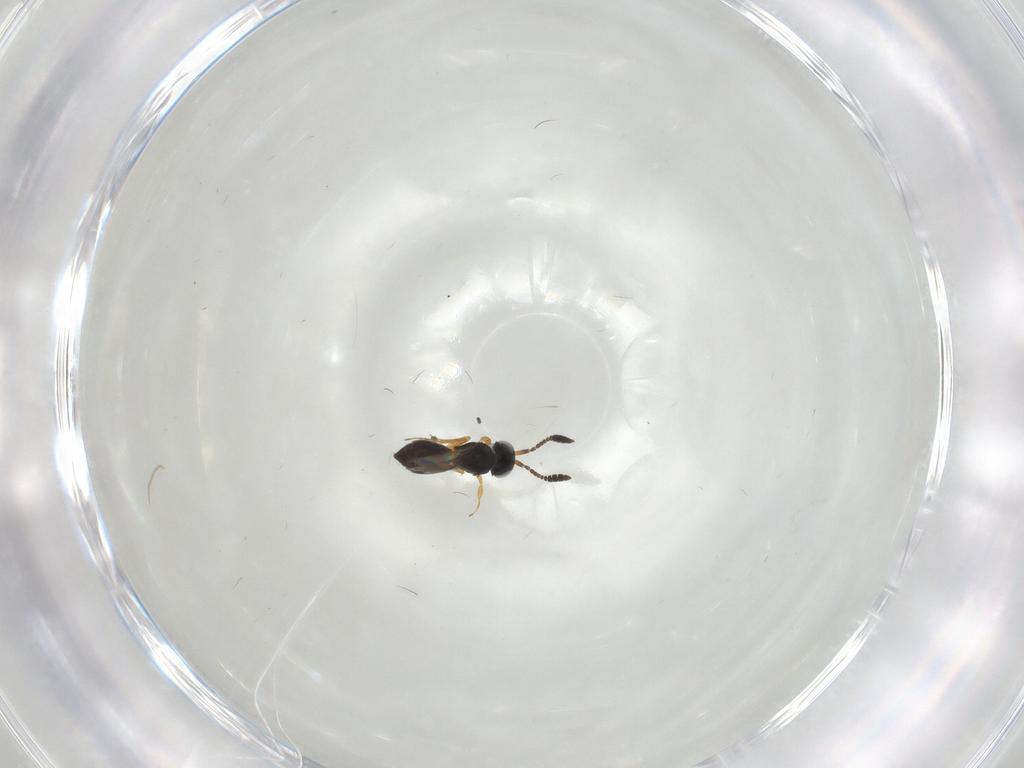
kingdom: Animalia
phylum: Arthropoda
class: Insecta
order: Hymenoptera
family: Scelionidae
